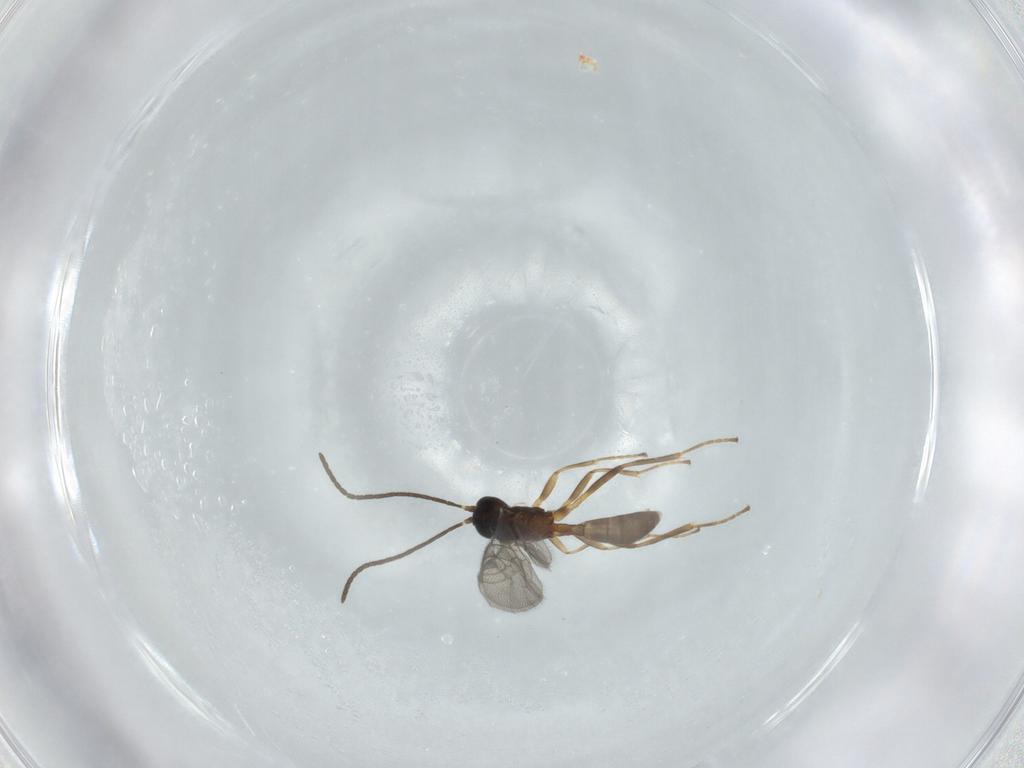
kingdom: Animalia
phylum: Arthropoda
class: Insecta
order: Hymenoptera
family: Ichneumonidae
